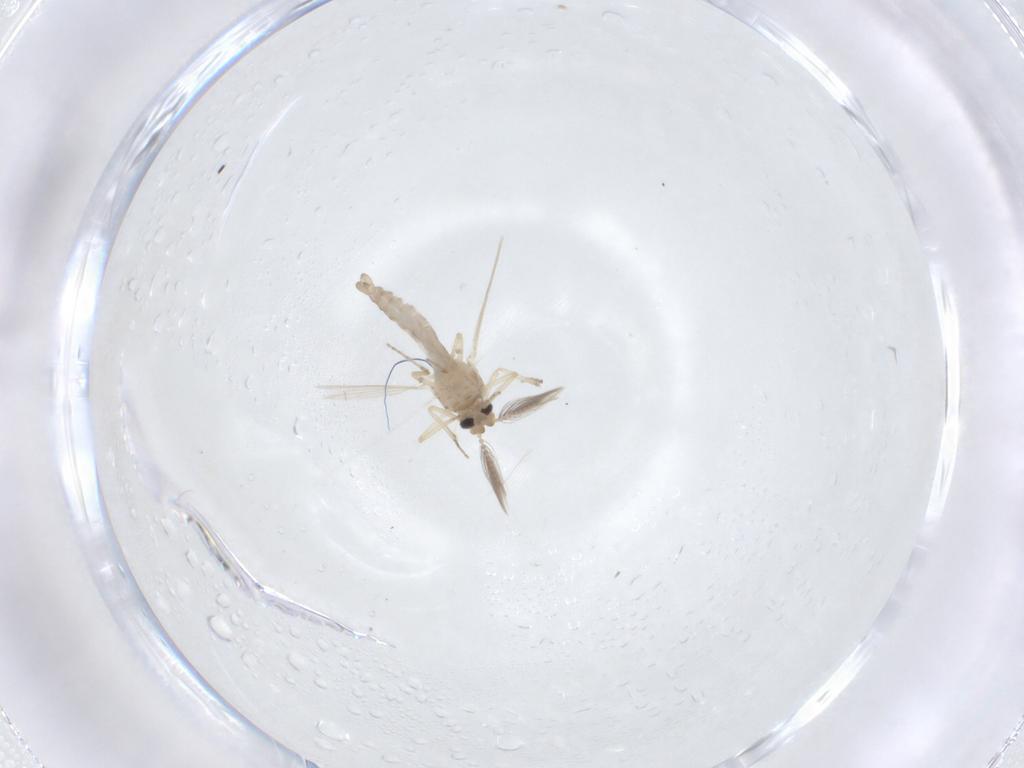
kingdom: Animalia
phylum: Arthropoda
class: Insecta
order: Diptera
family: Ceratopogonidae
